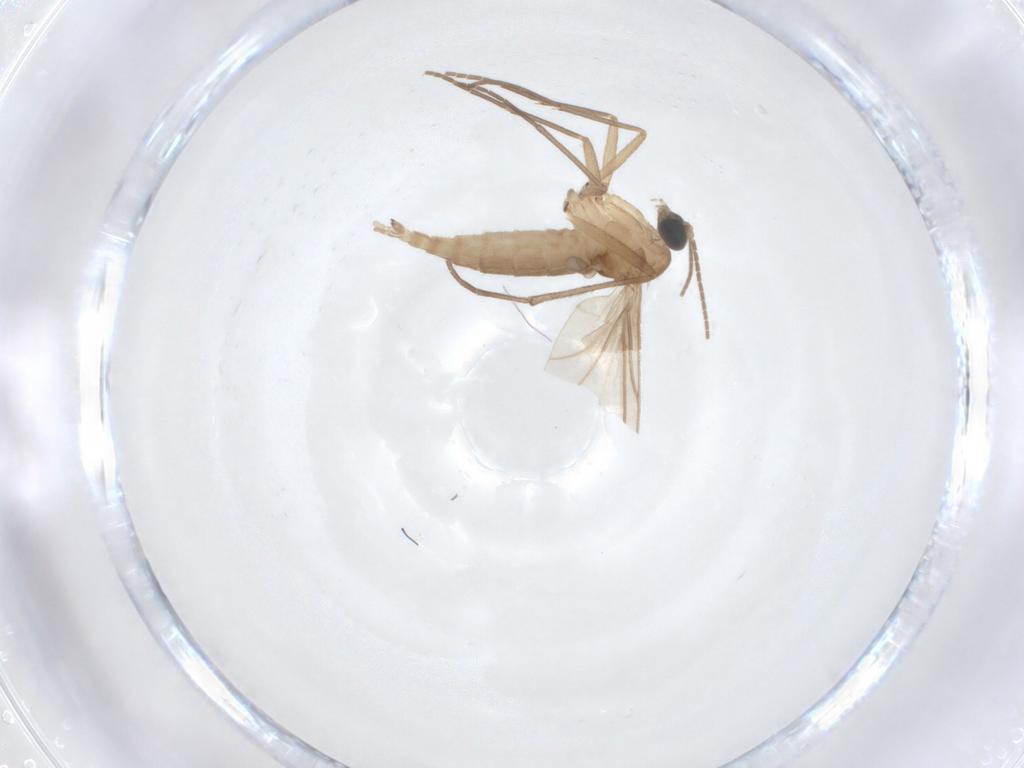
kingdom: Animalia
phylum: Arthropoda
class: Insecta
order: Diptera
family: Sciaridae
